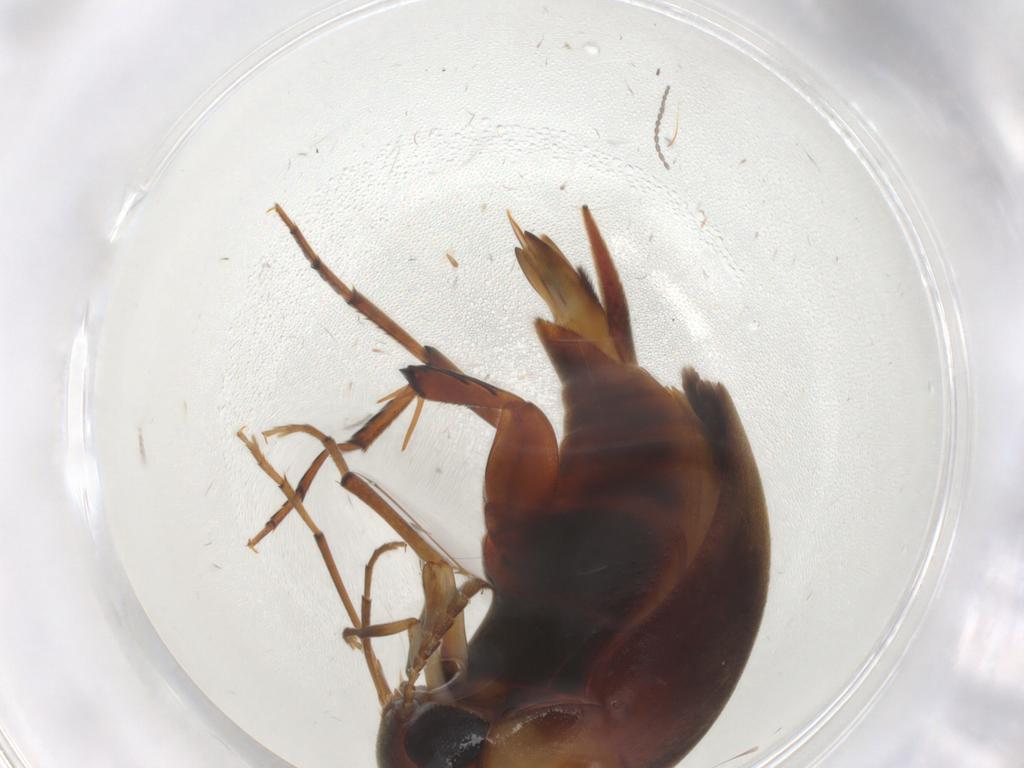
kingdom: Animalia
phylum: Arthropoda
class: Insecta
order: Coleoptera
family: Mordellidae
